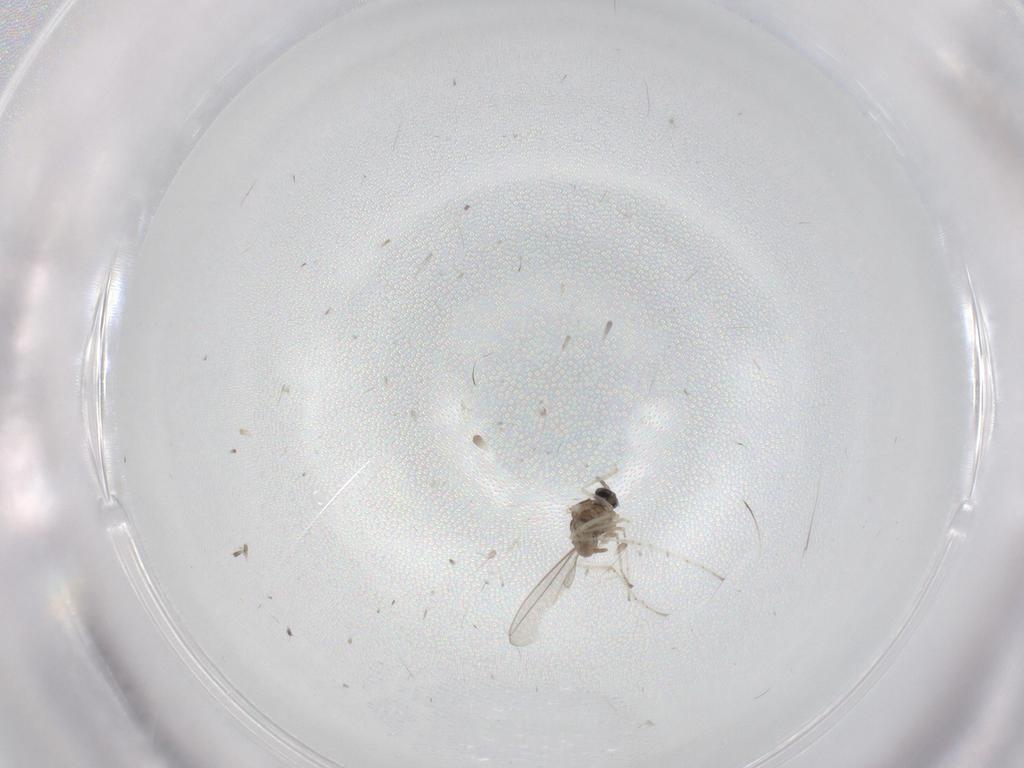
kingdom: Animalia
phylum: Arthropoda
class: Insecta
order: Diptera
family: Cecidomyiidae
